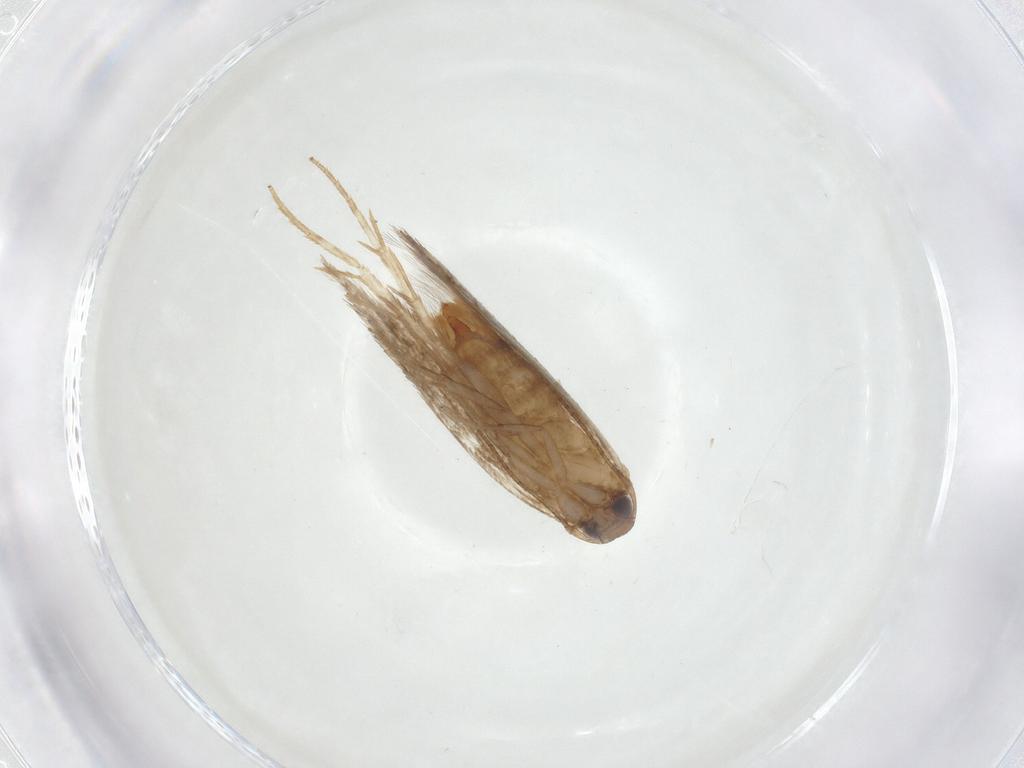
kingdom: Animalia
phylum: Arthropoda
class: Insecta
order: Lepidoptera
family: Gelechiidae
